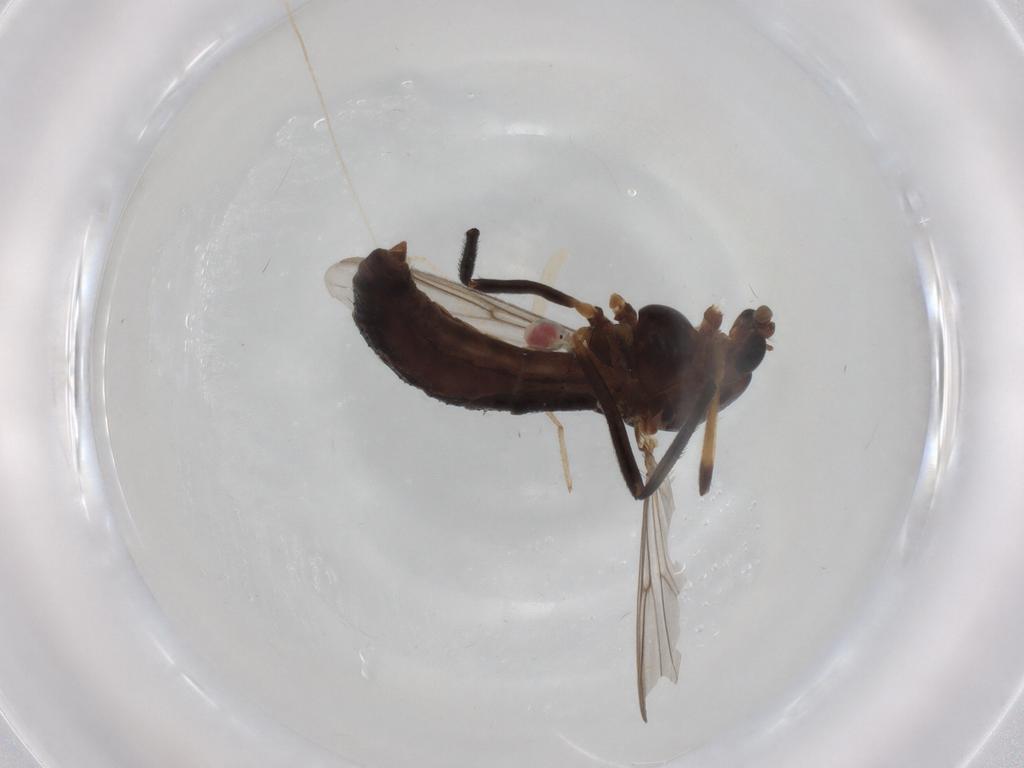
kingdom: Animalia
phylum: Arthropoda
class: Insecta
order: Diptera
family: Chironomidae
